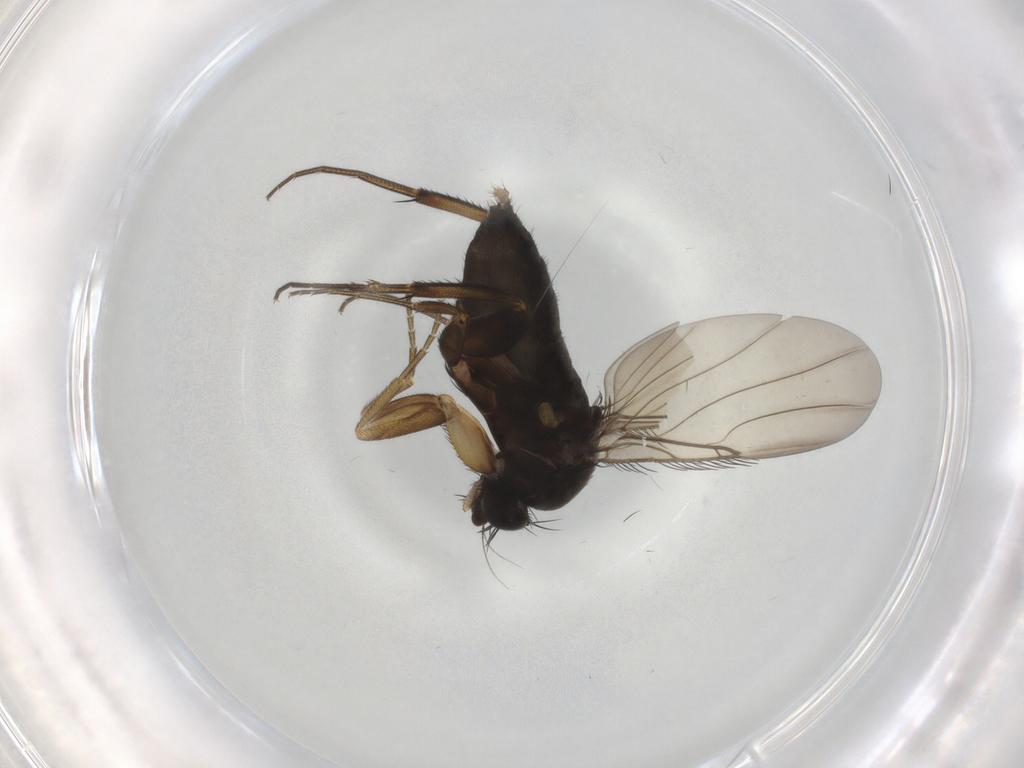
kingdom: Animalia
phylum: Arthropoda
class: Insecta
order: Diptera
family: Phoridae
